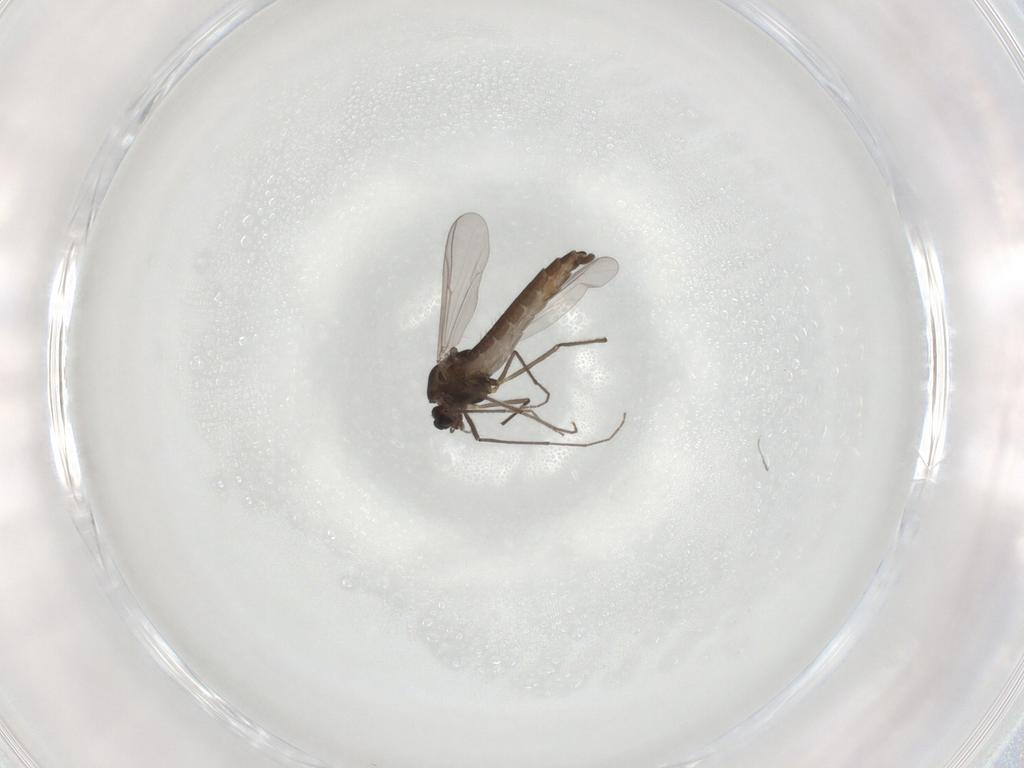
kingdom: Animalia
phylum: Arthropoda
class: Insecta
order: Diptera
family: Chironomidae
